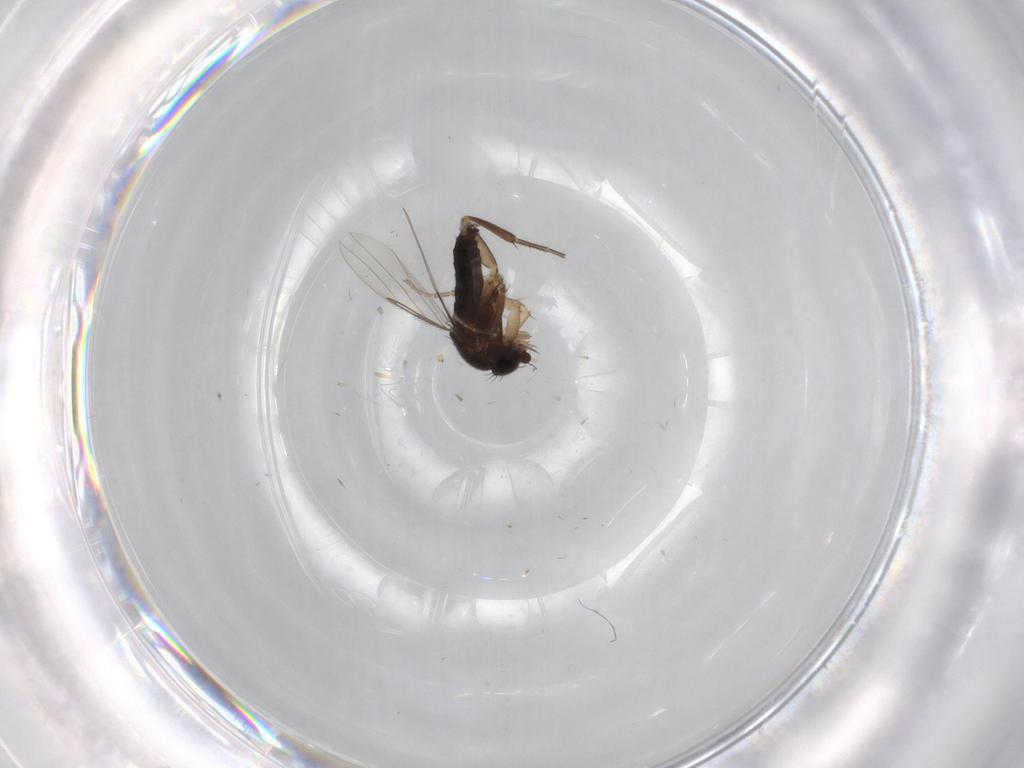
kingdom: Animalia
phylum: Arthropoda
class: Insecta
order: Diptera
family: Phoridae
